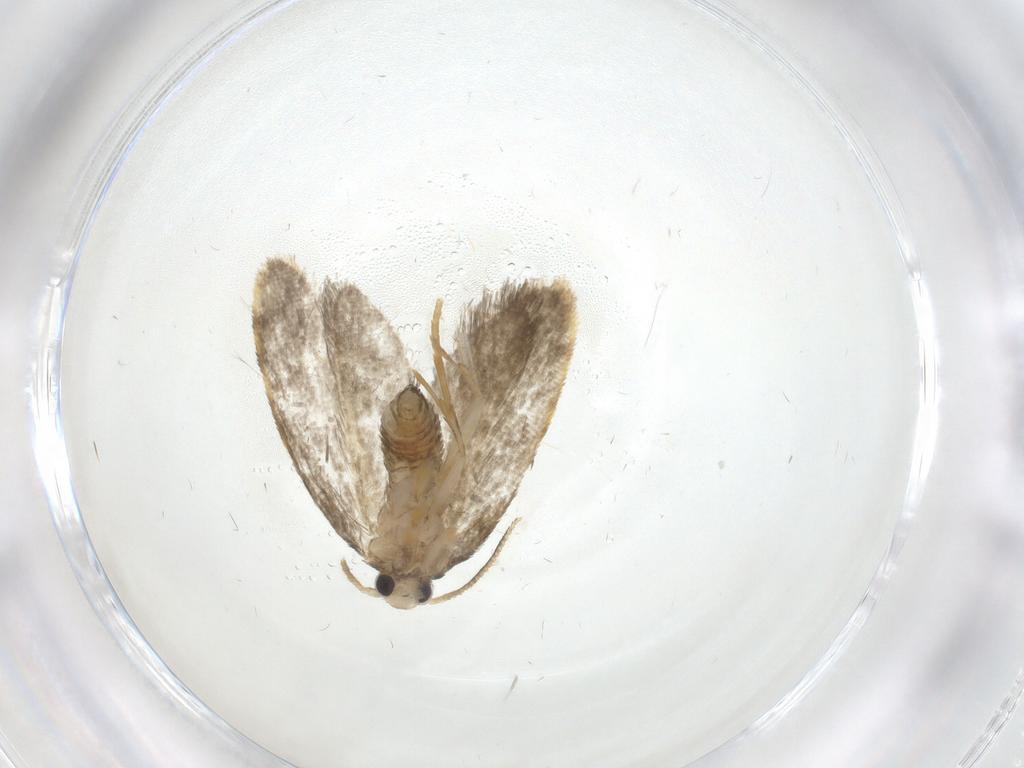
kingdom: Animalia
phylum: Arthropoda
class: Insecta
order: Lepidoptera
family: Psychidae
